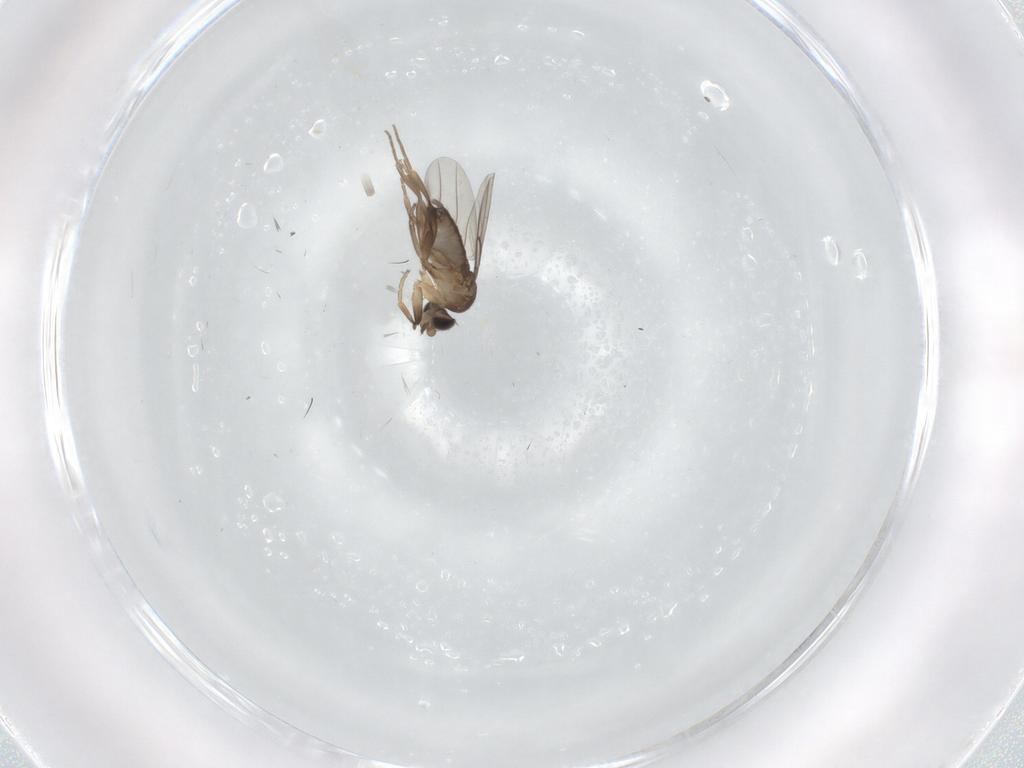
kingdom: Animalia
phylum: Arthropoda
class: Insecta
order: Diptera
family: Phoridae
